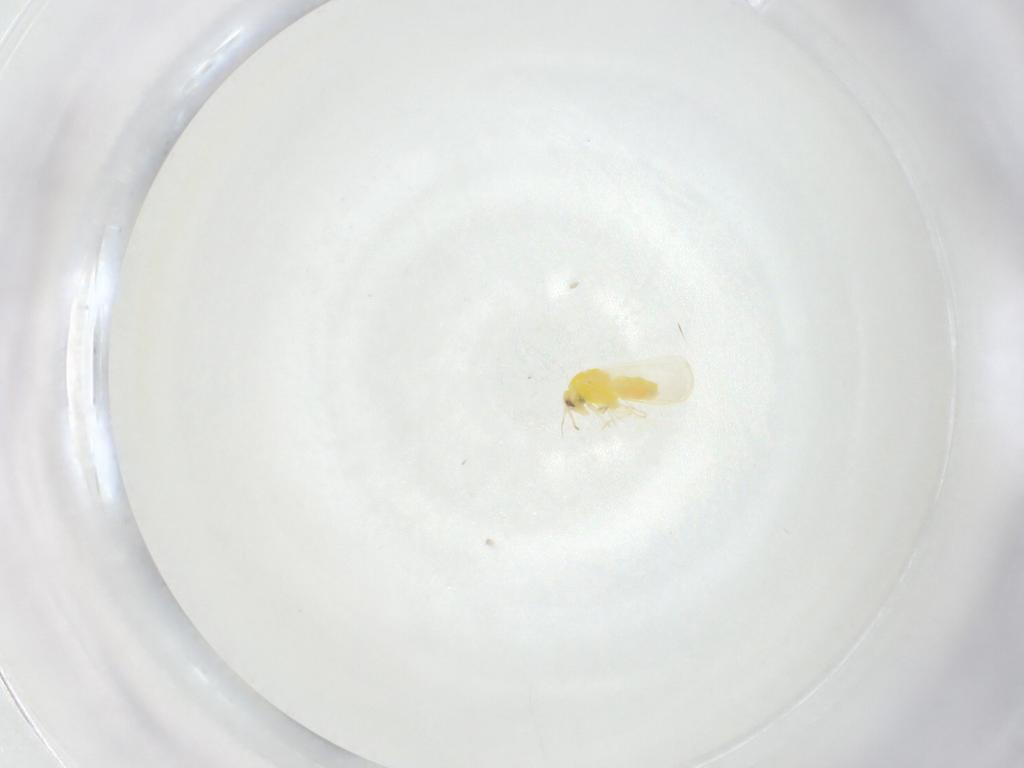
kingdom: Animalia
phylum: Arthropoda
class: Insecta
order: Hemiptera
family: Aleyrodidae
